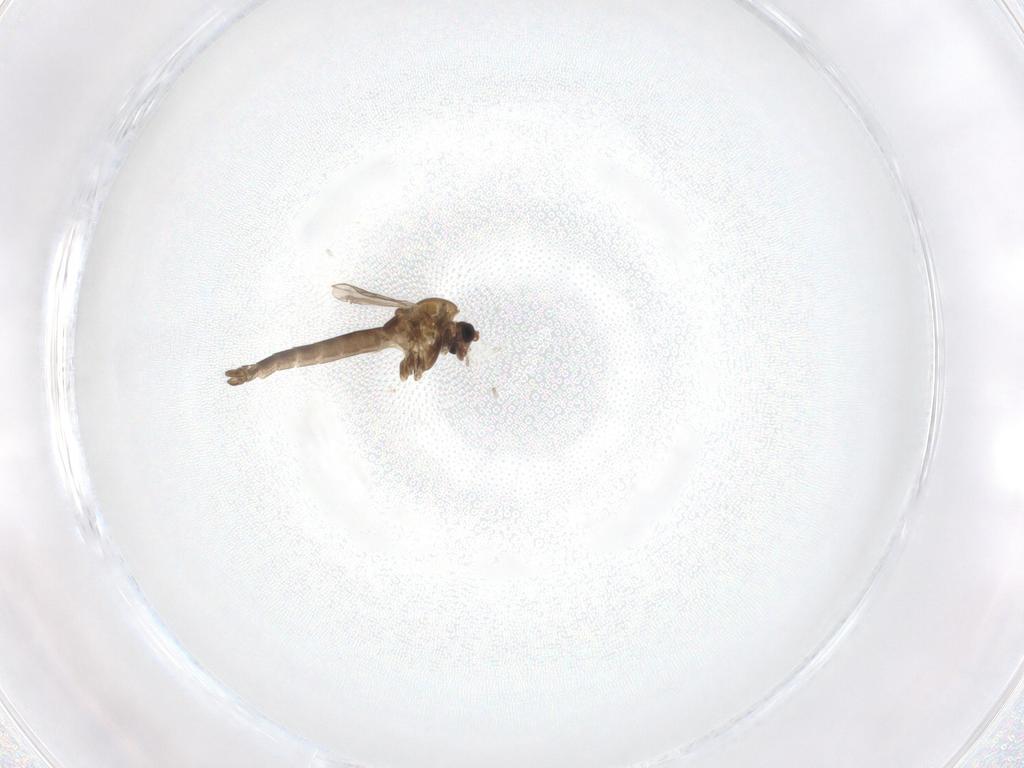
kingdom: Animalia
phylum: Arthropoda
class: Insecta
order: Diptera
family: Chironomidae
